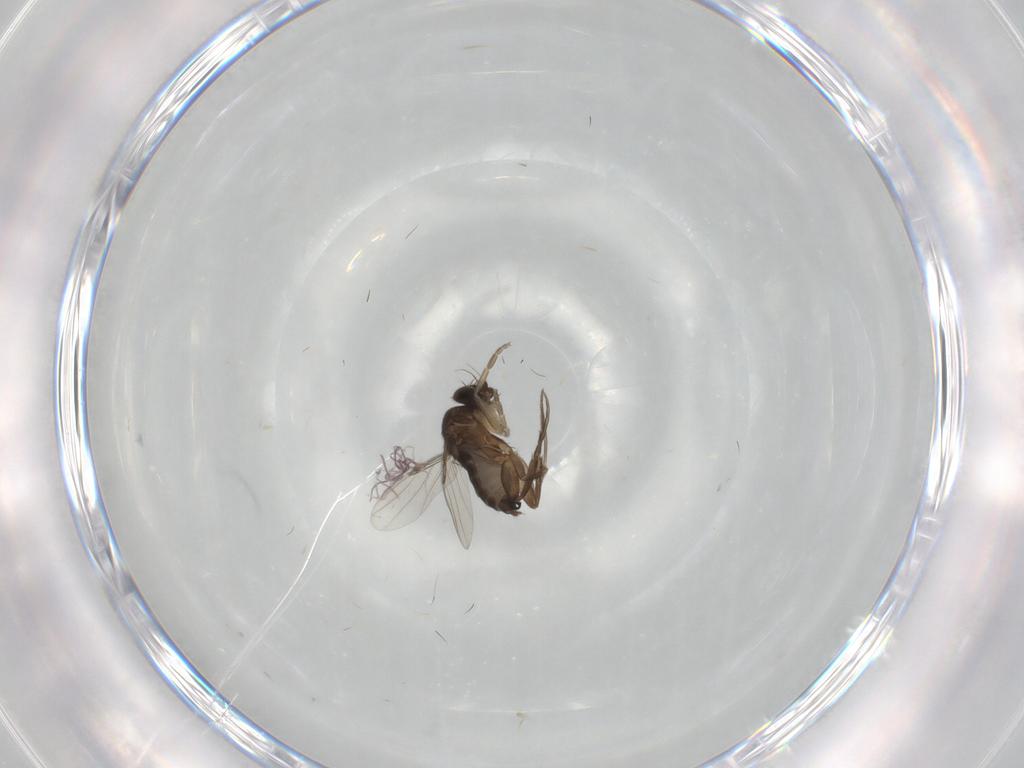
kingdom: Animalia
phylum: Arthropoda
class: Insecta
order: Diptera
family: Phoridae
